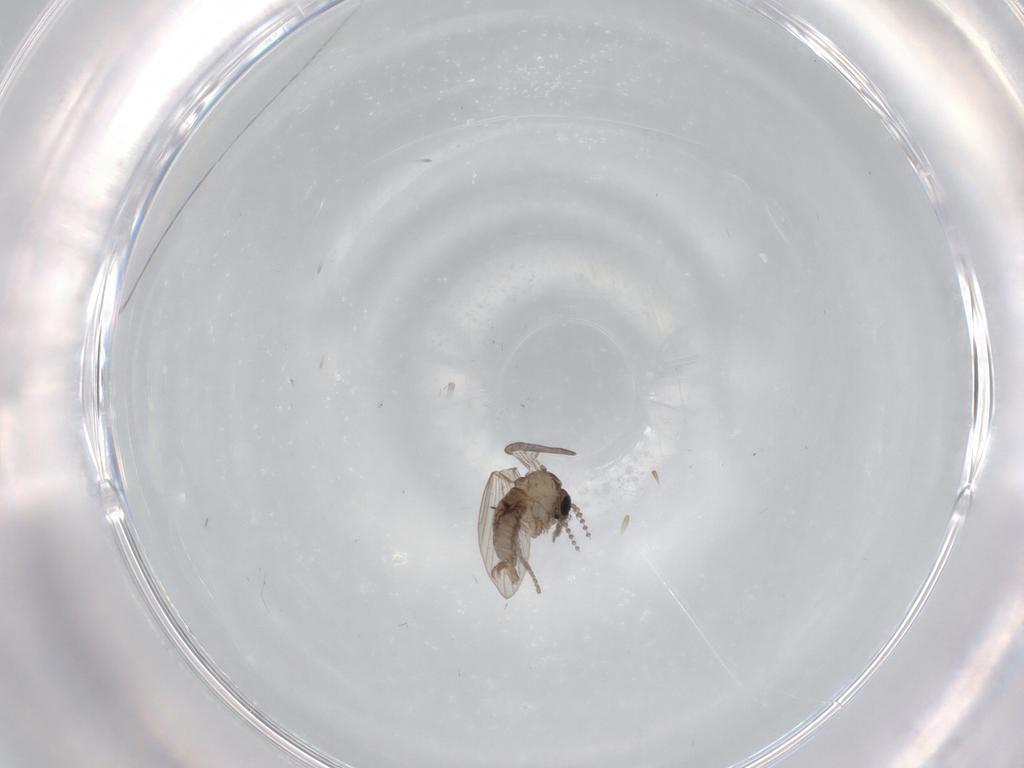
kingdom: Animalia
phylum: Arthropoda
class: Insecta
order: Diptera
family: Psychodidae
